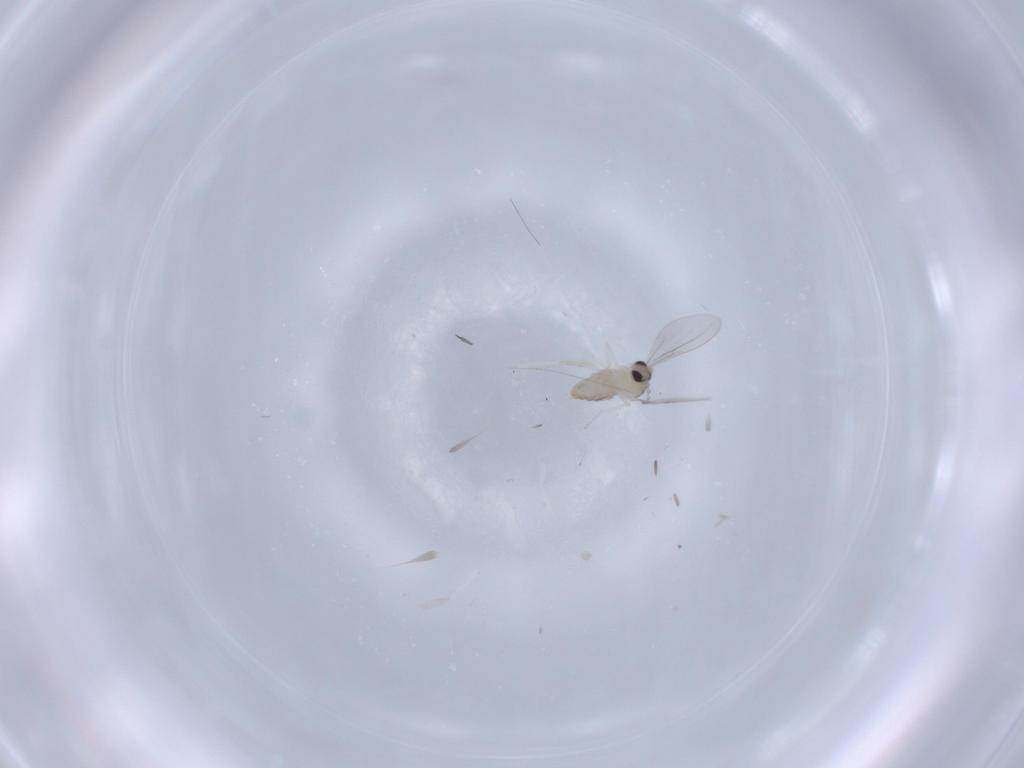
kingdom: Animalia
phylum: Arthropoda
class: Insecta
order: Diptera
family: Cecidomyiidae
